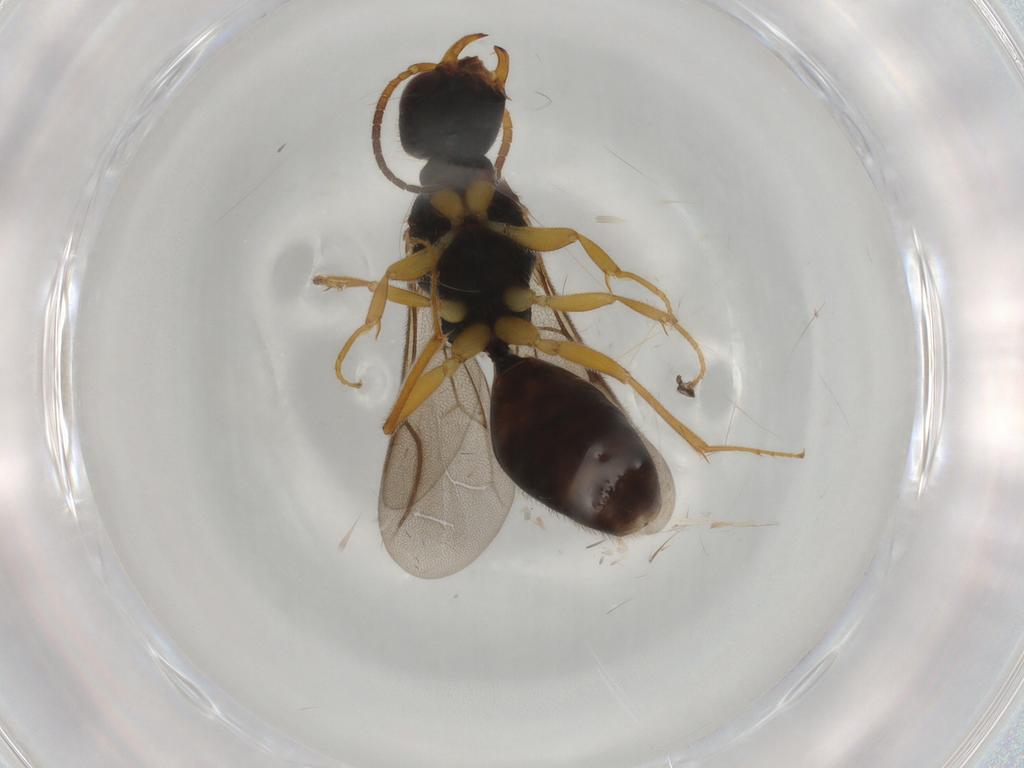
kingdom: Animalia
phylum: Arthropoda
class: Insecta
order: Hymenoptera
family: Bethylidae
